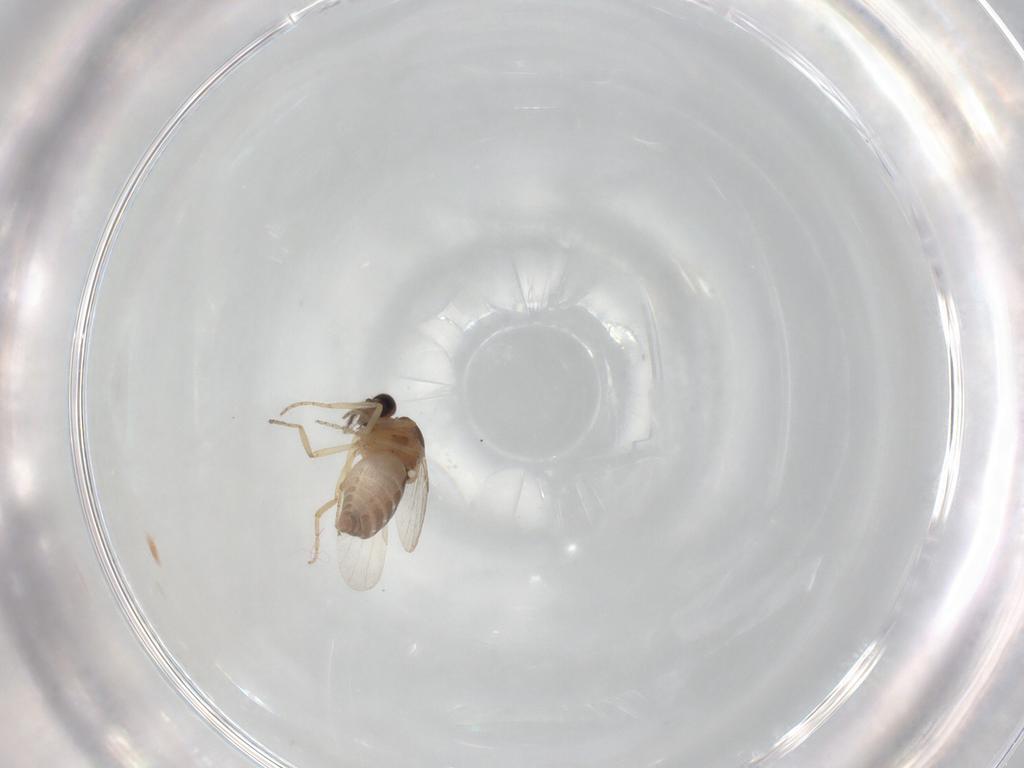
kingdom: Animalia
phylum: Arthropoda
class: Insecta
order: Diptera
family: Ceratopogonidae
